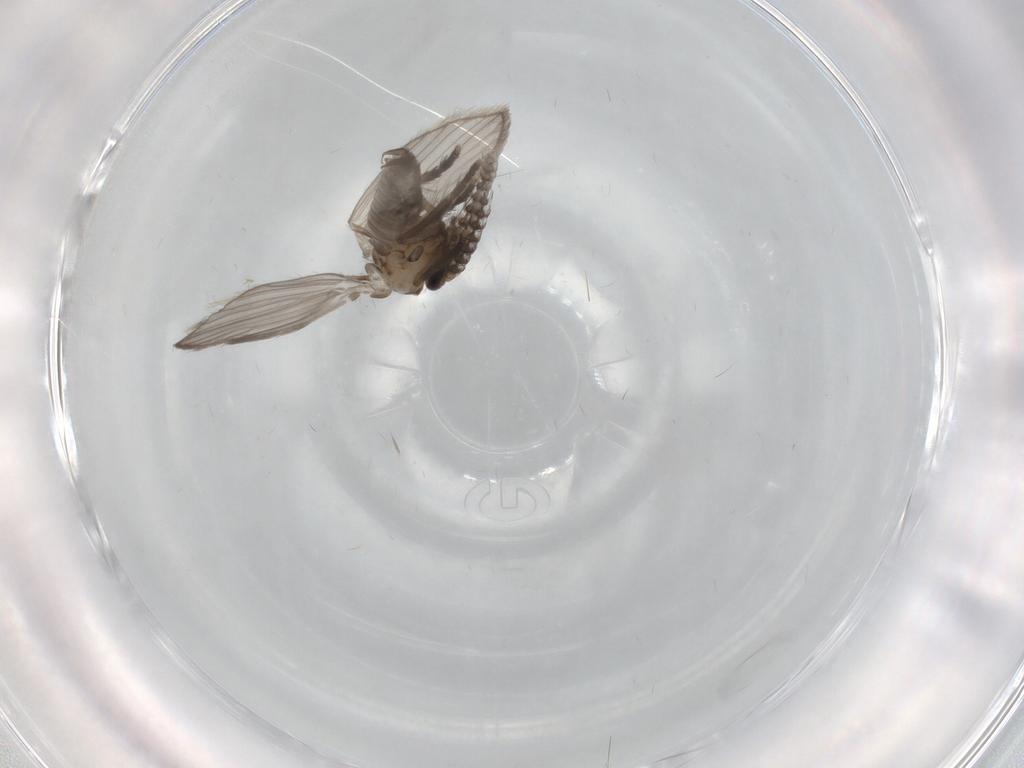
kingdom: Animalia
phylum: Arthropoda
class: Insecta
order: Diptera
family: Psychodidae
